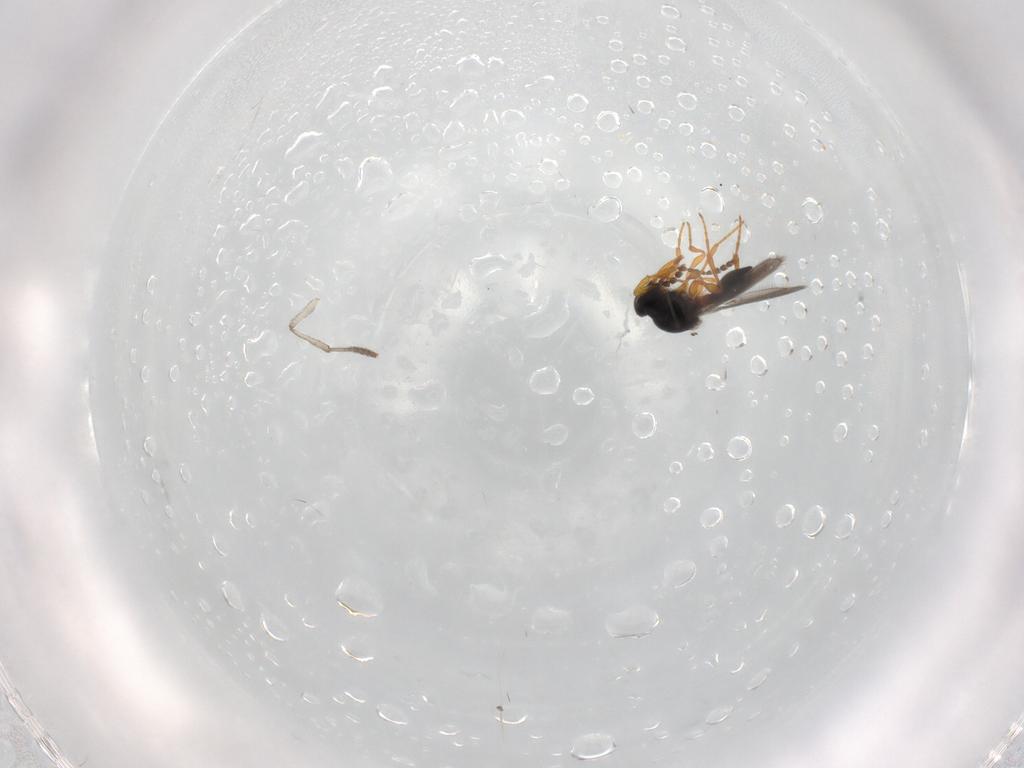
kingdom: Animalia
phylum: Arthropoda
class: Insecta
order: Hymenoptera
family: Platygastridae
